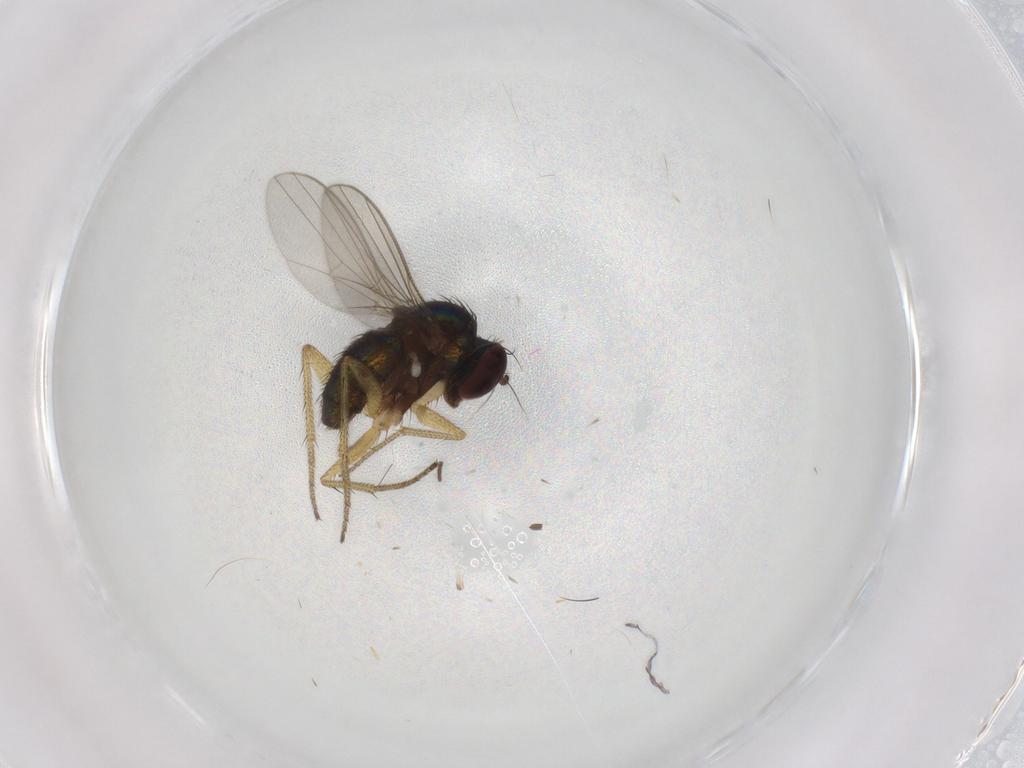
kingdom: Animalia
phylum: Arthropoda
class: Insecta
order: Diptera
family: Dolichopodidae
